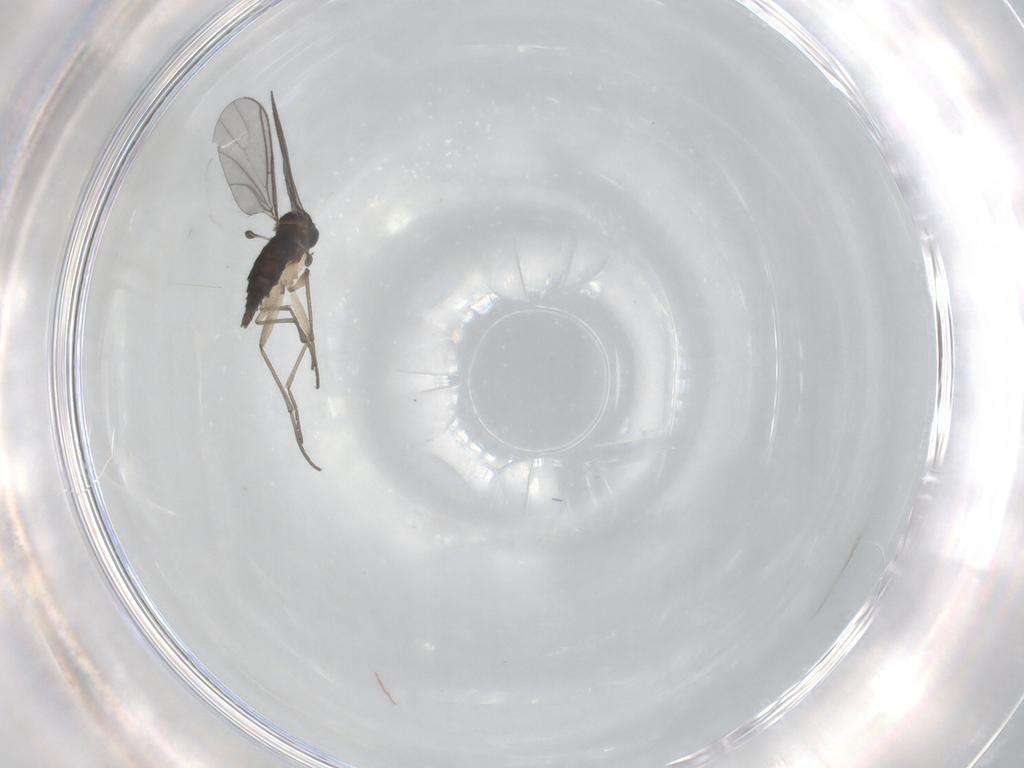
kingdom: Animalia
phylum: Arthropoda
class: Insecta
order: Diptera
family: Sciaridae
